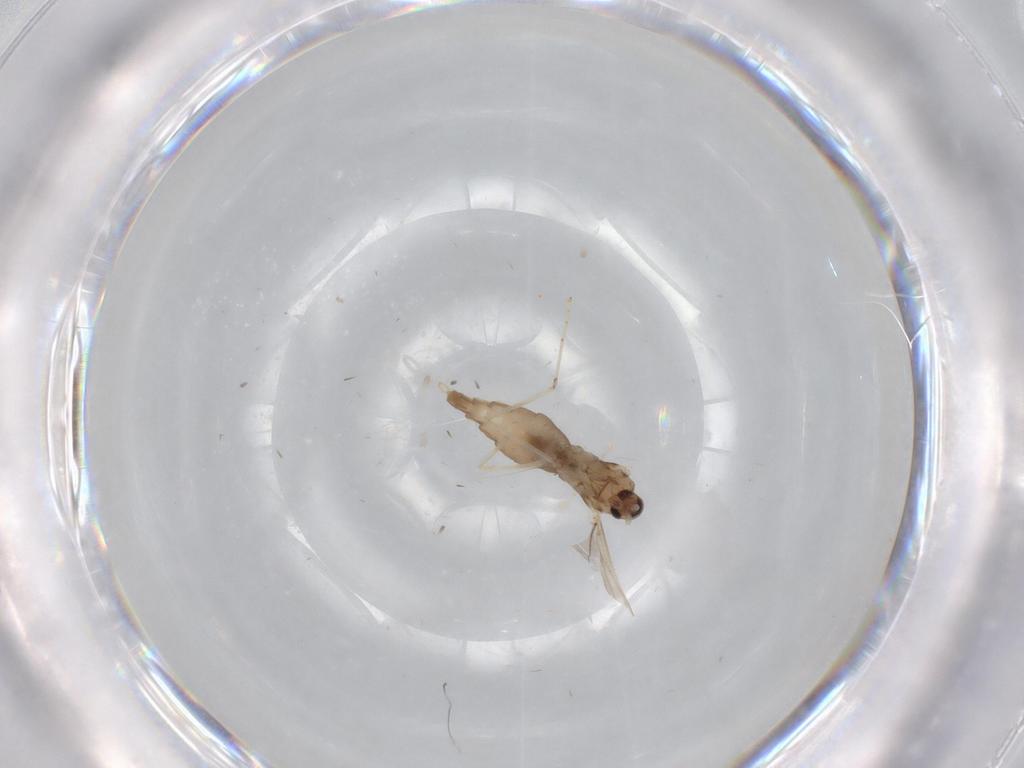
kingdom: Animalia
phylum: Arthropoda
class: Insecta
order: Diptera
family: Cecidomyiidae
